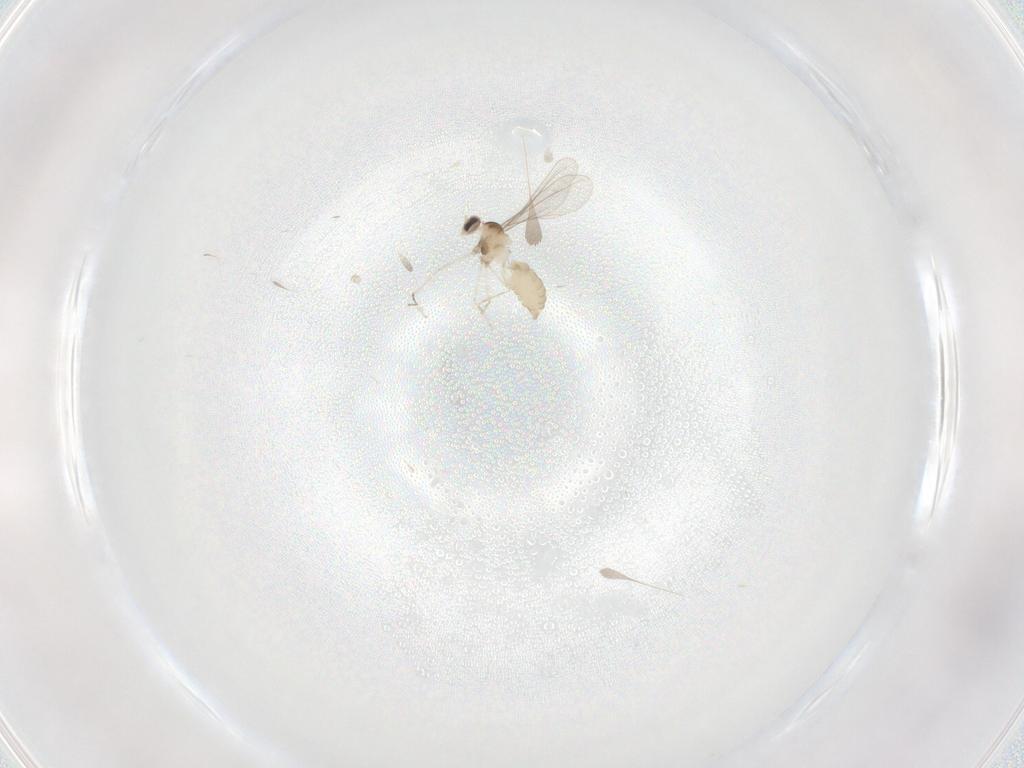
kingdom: Animalia
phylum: Arthropoda
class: Insecta
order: Diptera
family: Cecidomyiidae
